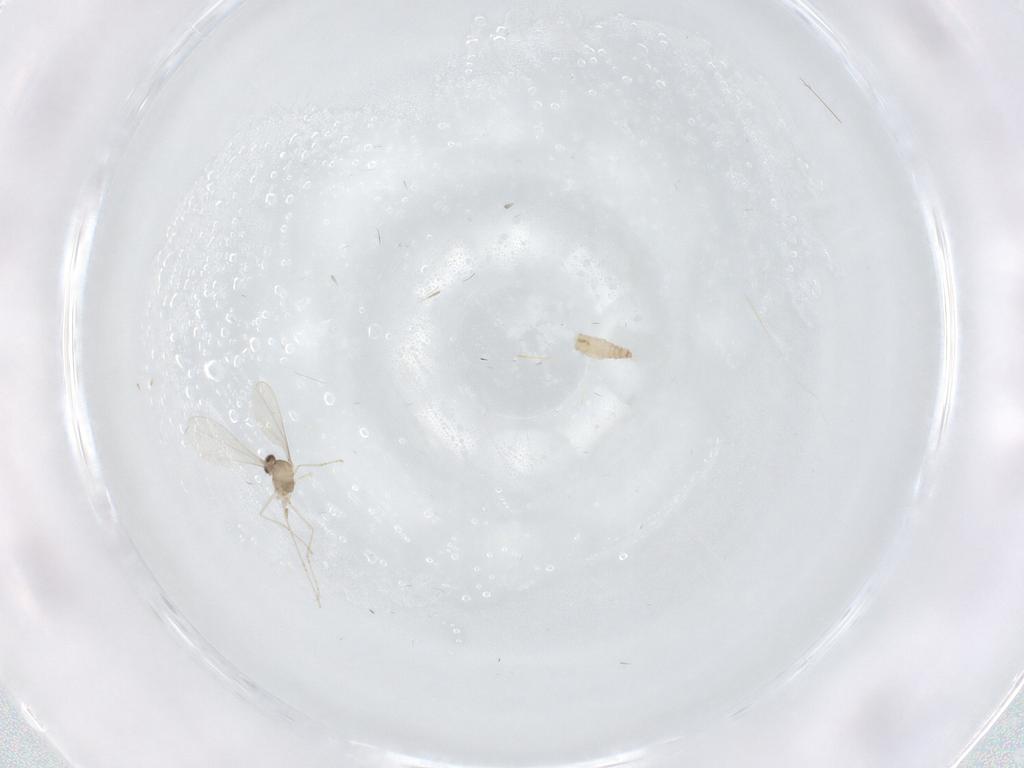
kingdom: Animalia
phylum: Arthropoda
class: Insecta
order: Diptera
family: Cecidomyiidae
